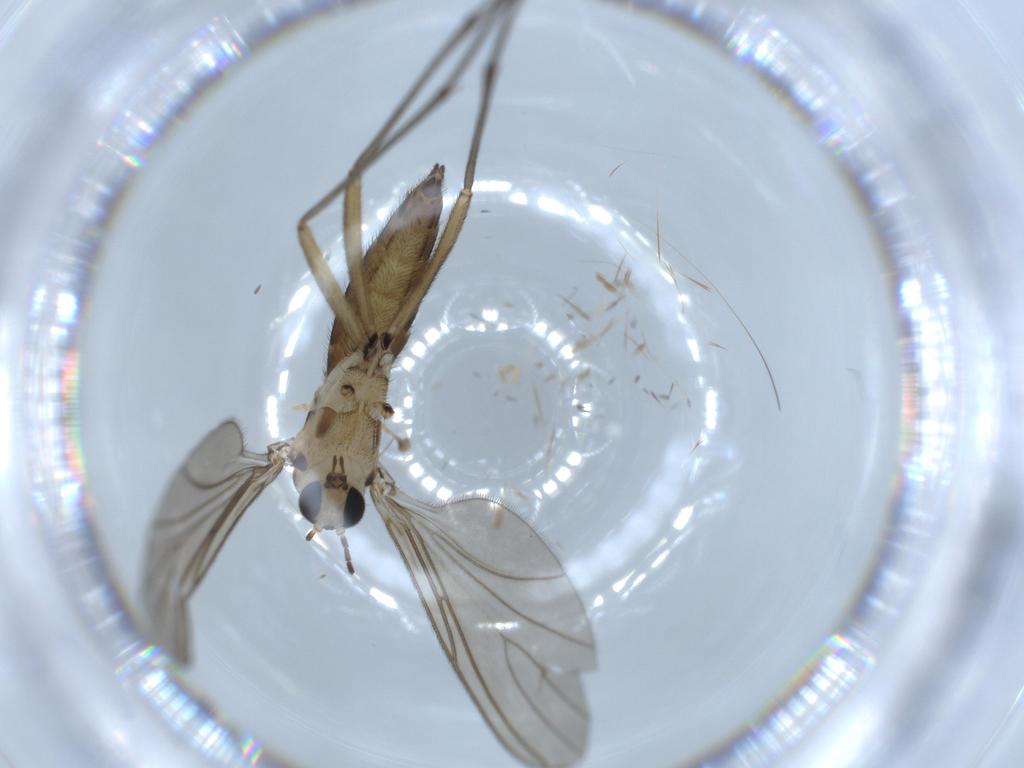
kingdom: Animalia
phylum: Arthropoda
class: Insecta
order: Diptera
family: Sciaridae
